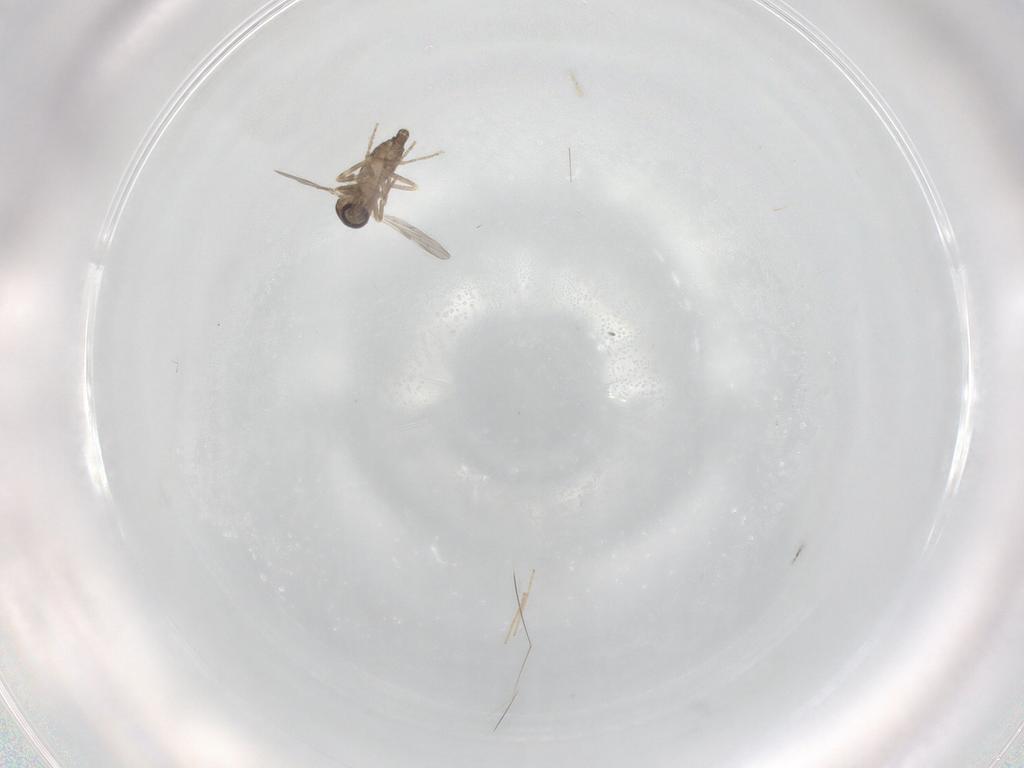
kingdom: Animalia
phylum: Arthropoda
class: Insecta
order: Diptera
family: Ceratopogonidae
